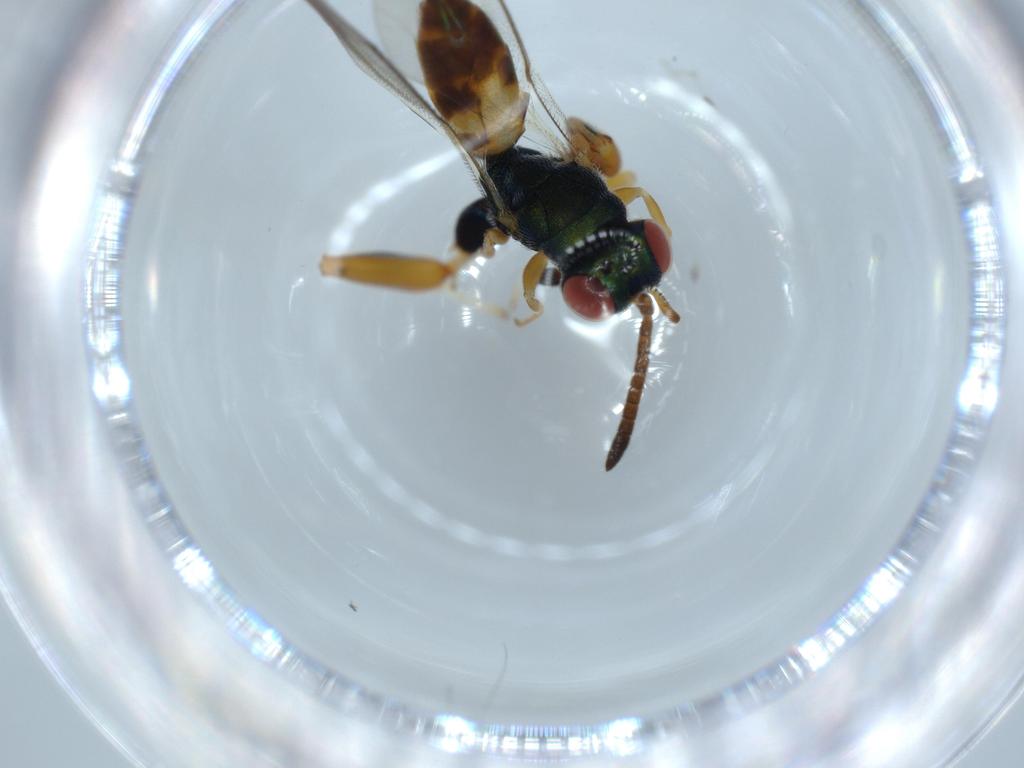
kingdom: Animalia
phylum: Arthropoda
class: Insecta
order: Hymenoptera
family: Torymidae
